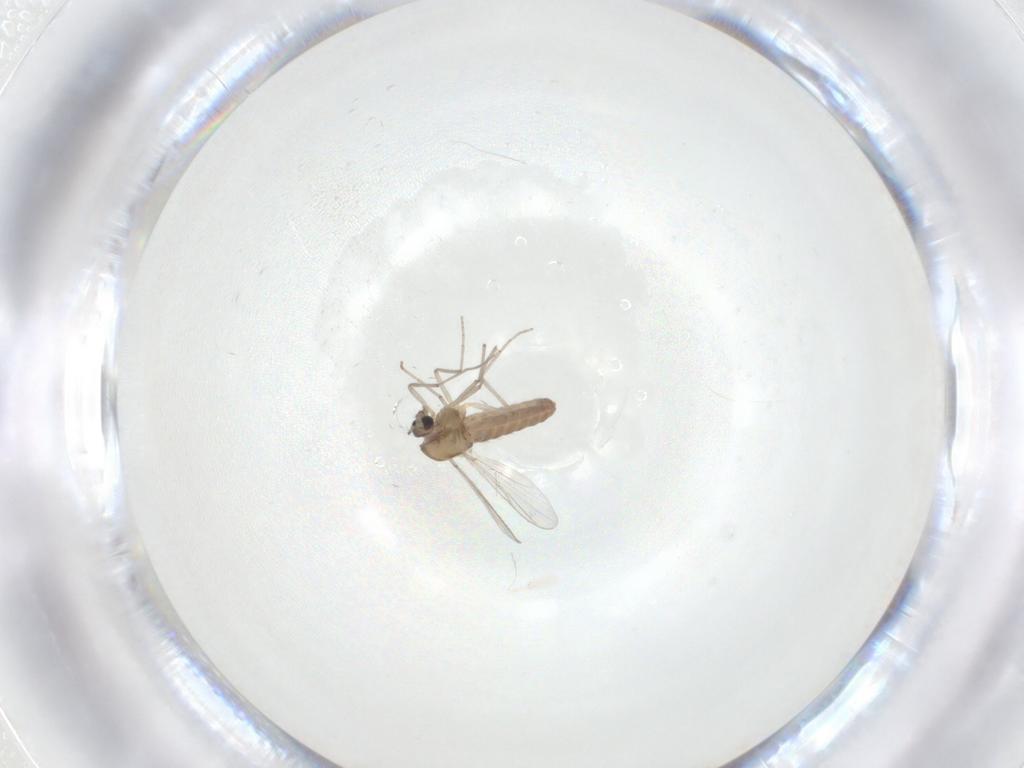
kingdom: Animalia
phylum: Arthropoda
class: Insecta
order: Diptera
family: Chironomidae
